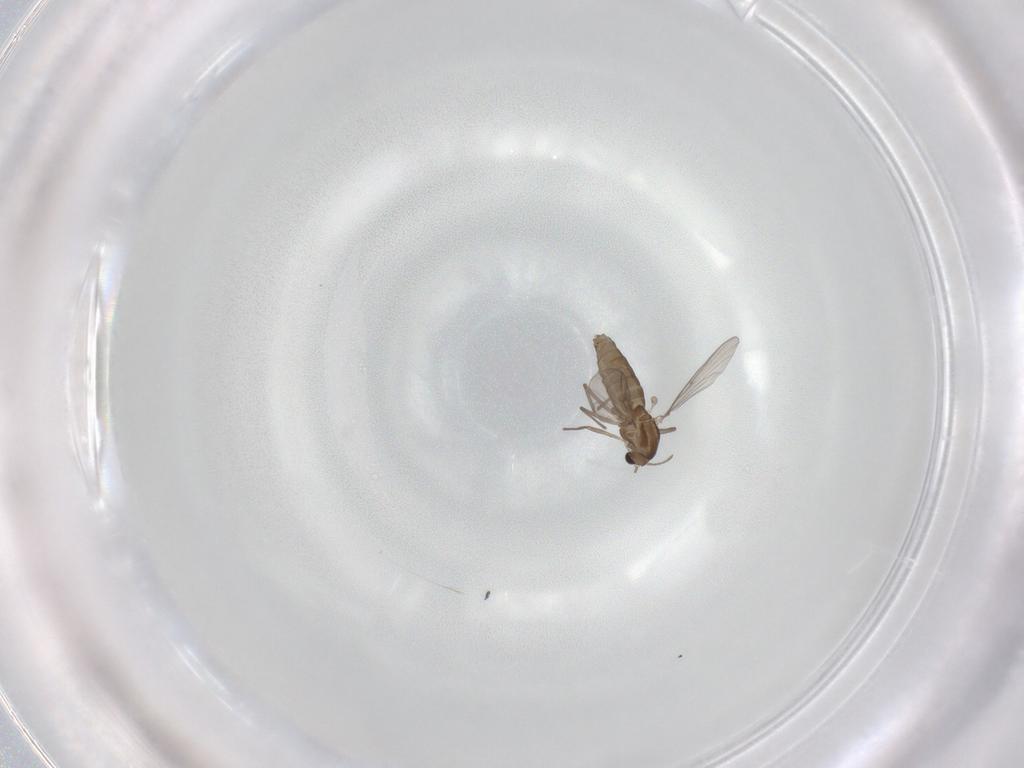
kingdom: Animalia
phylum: Arthropoda
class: Insecta
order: Diptera
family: Chironomidae
